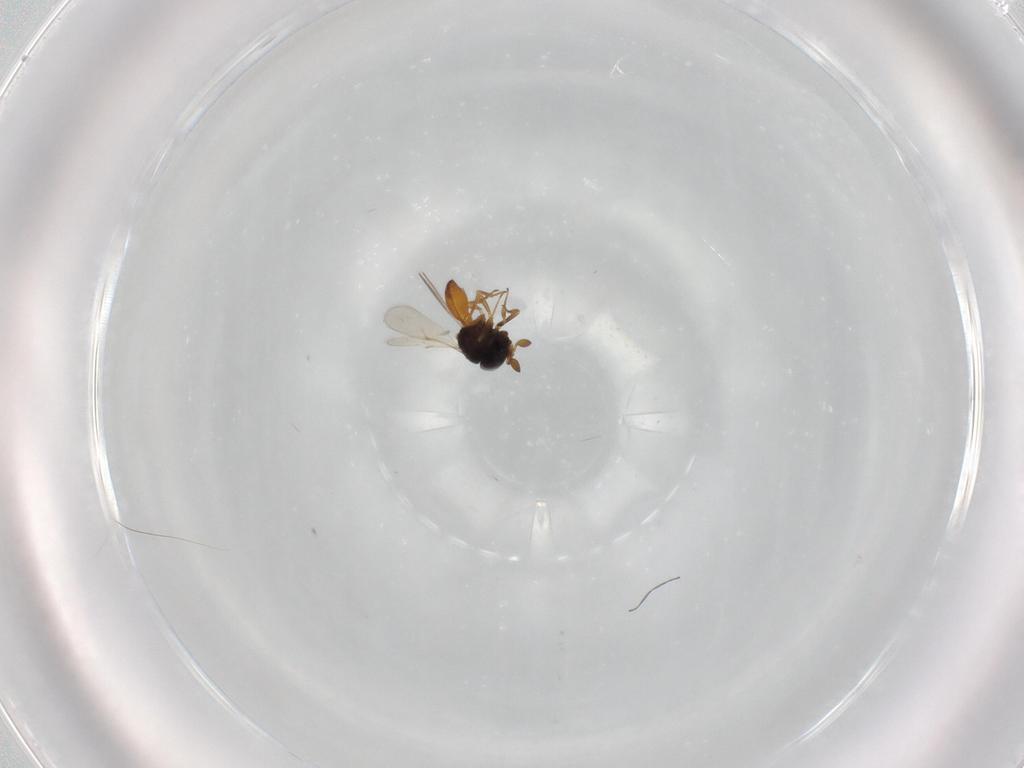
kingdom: Animalia
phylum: Arthropoda
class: Insecta
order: Hymenoptera
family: Scelionidae
